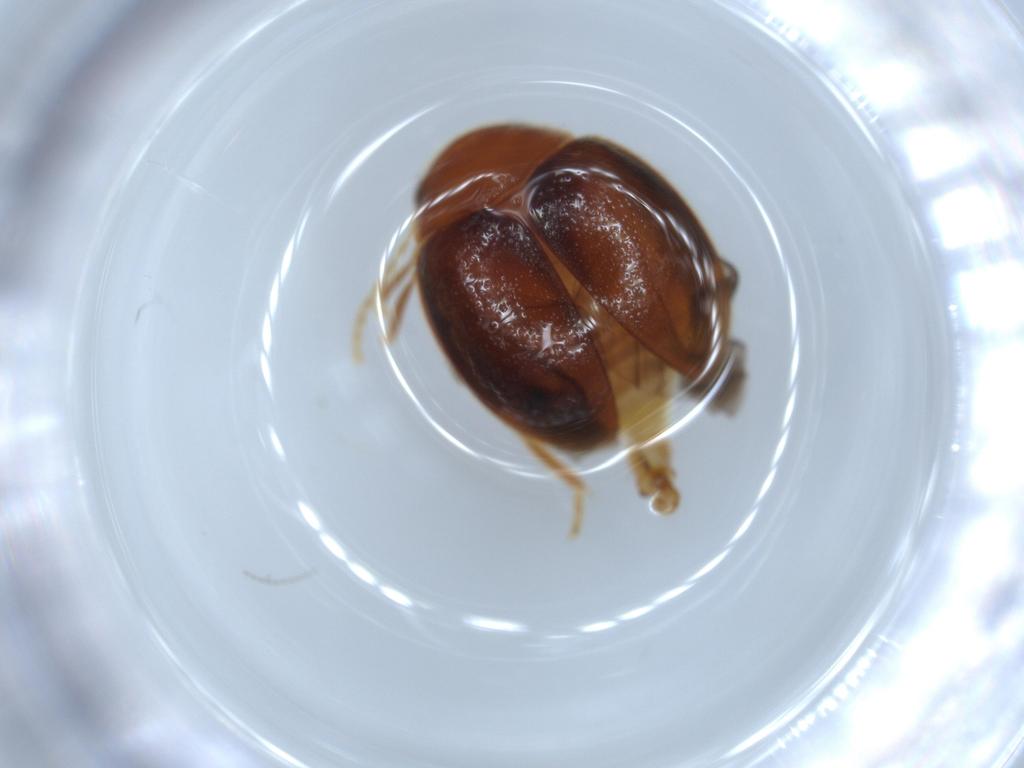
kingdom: Animalia
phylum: Arthropoda
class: Insecta
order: Coleoptera
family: Scirtidae
